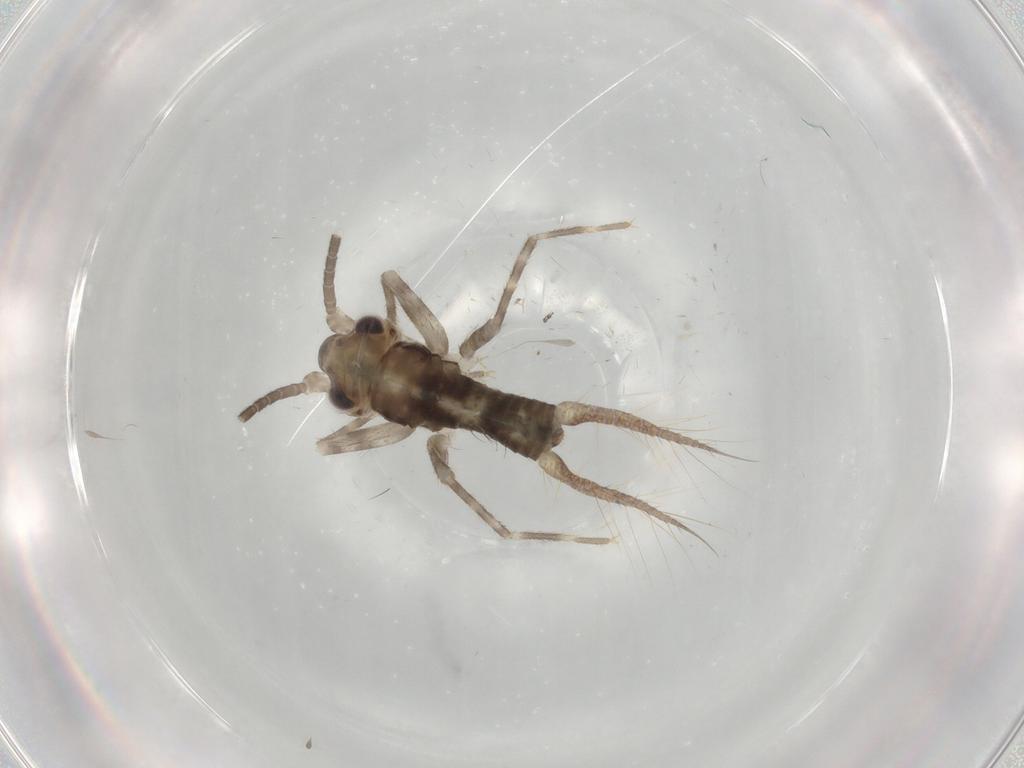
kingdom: Animalia
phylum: Arthropoda
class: Insecta
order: Orthoptera
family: Gryllidae
